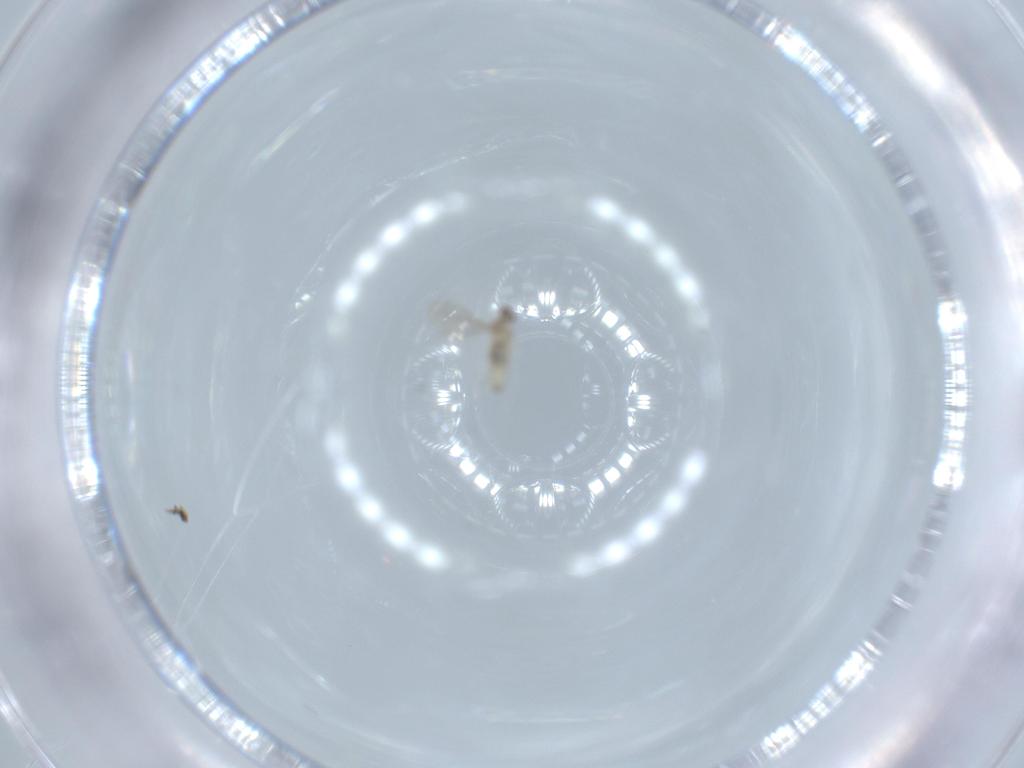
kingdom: Animalia
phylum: Arthropoda
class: Insecta
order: Diptera
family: Cecidomyiidae
